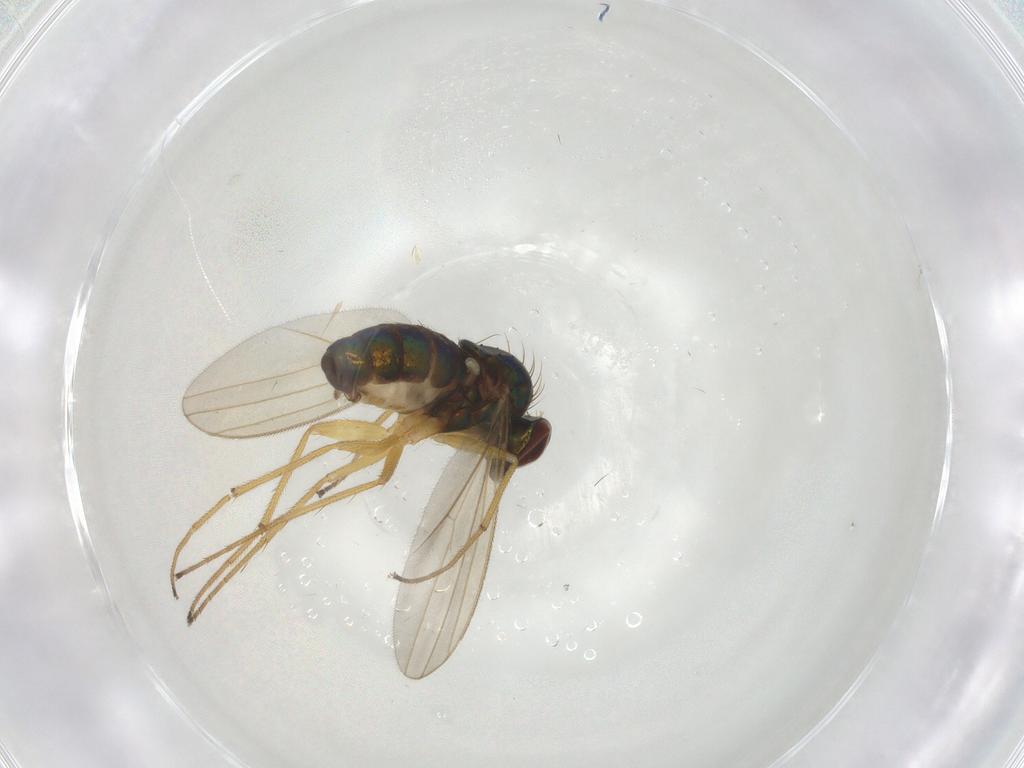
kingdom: Animalia
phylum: Arthropoda
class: Insecta
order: Diptera
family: Dolichopodidae
